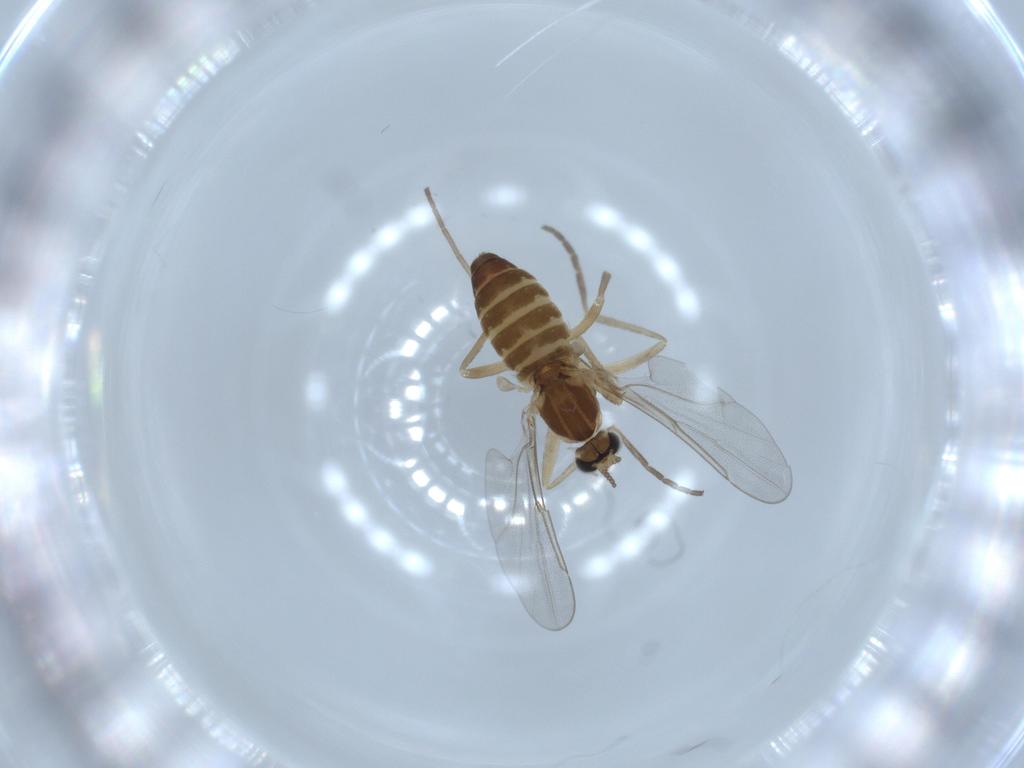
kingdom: Animalia
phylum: Arthropoda
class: Insecta
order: Diptera
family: Cecidomyiidae
